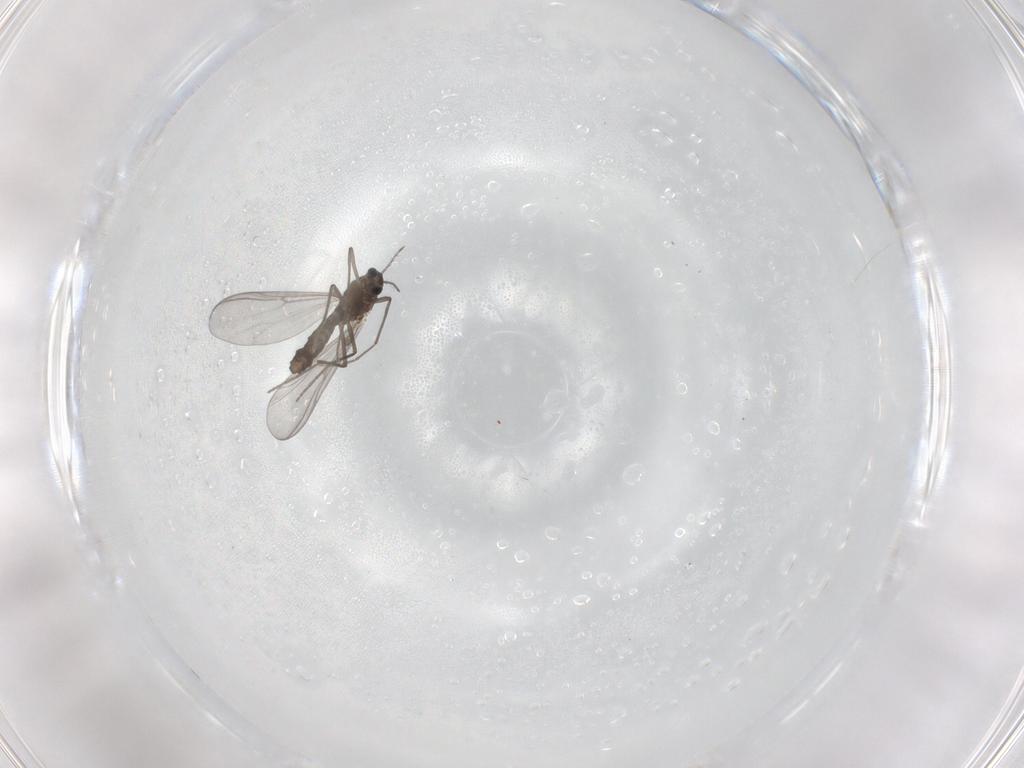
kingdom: Animalia
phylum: Arthropoda
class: Insecta
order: Diptera
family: Chironomidae
